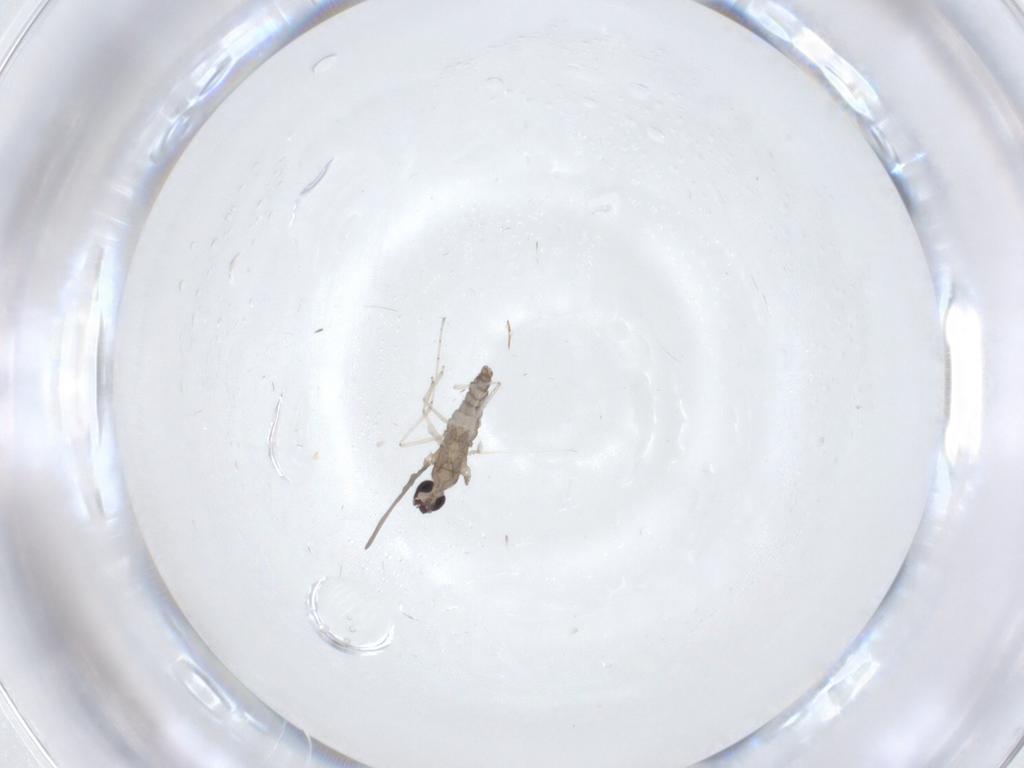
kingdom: Animalia
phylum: Arthropoda
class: Insecta
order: Diptera
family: Cecidomyiidae
